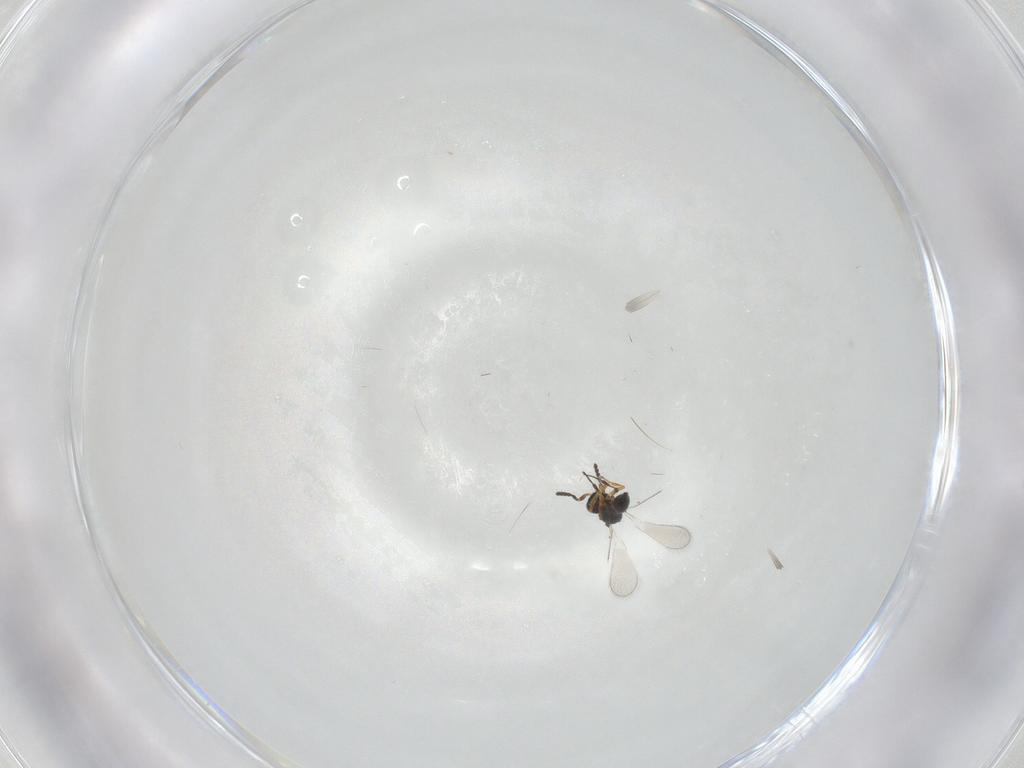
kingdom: Animalia
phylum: Arthropoda
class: Insecta
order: Hymenoptera
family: Platygastridae
